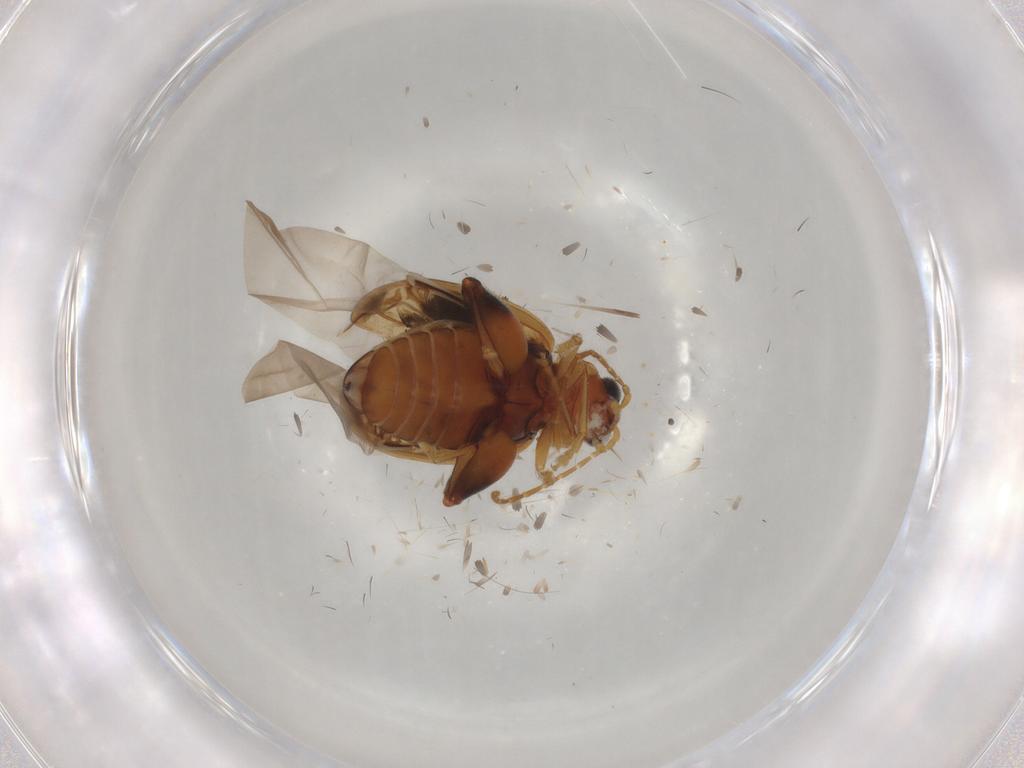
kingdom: Animalia
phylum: Arthropoda
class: Insecta
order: Coleoptera
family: Chrysomelidae
